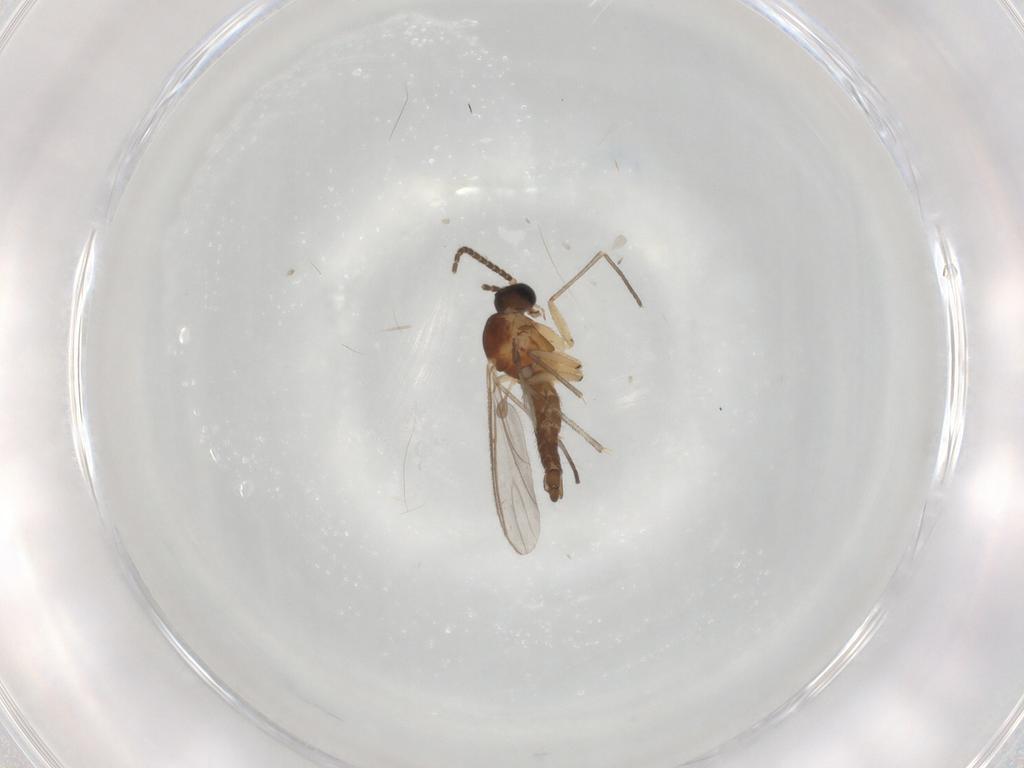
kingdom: Animalia
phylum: Arthropoda
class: Insecta
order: Diptera
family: Sciaridae
